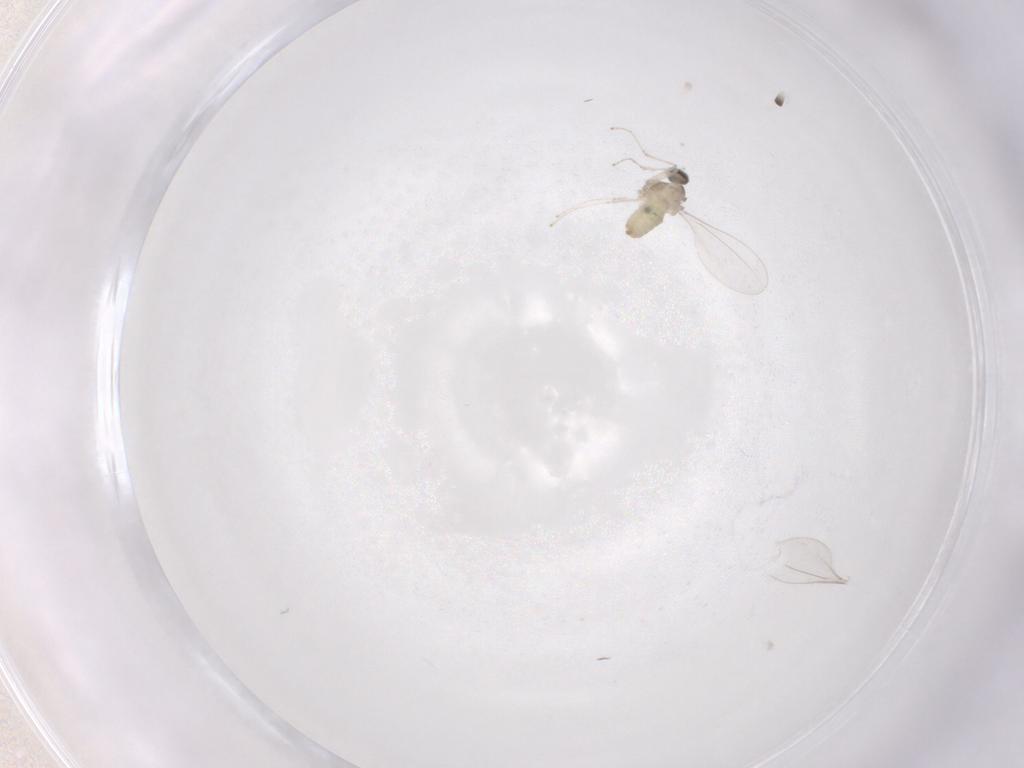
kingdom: Animalia
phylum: Arthropoda
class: Insecta
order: Diptera
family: Cecidomyiidae
